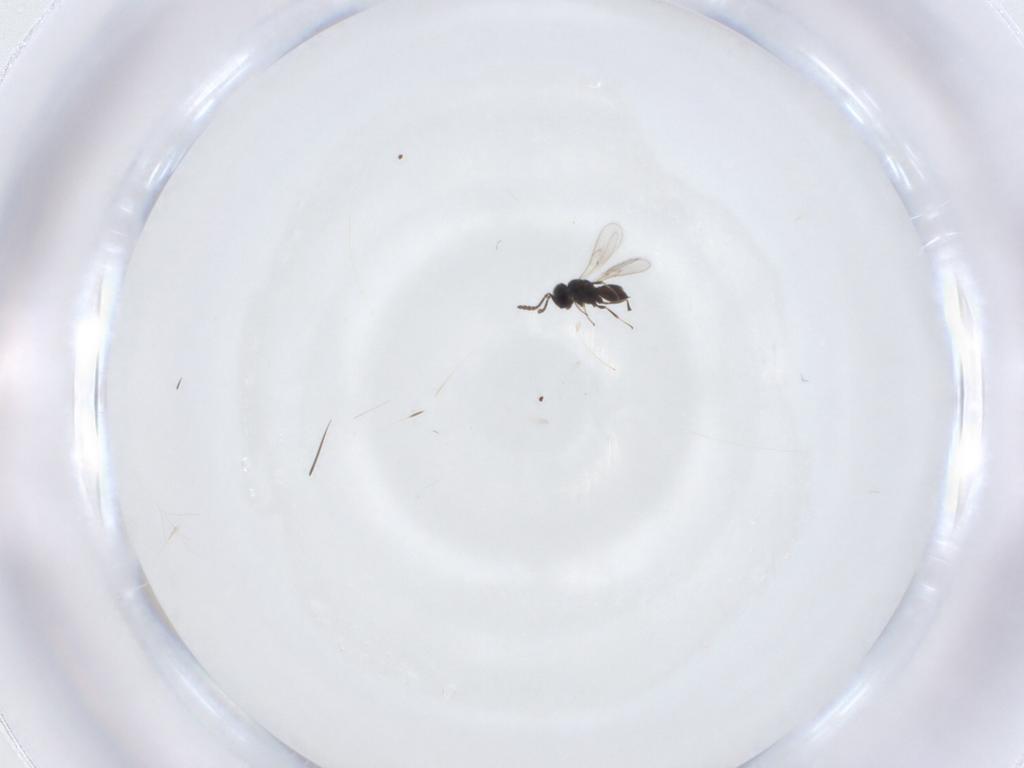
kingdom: Animalia
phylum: Arthropoda
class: Insecta
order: Hymenoptera
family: Scelionidae
